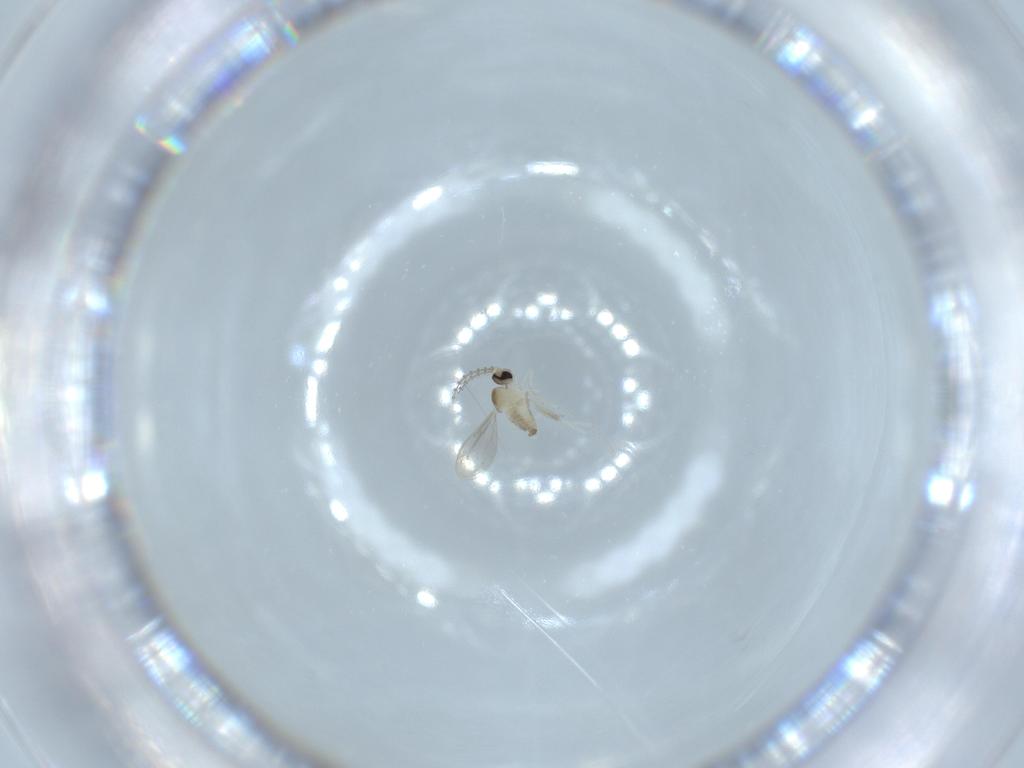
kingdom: Animalia
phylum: Arthropoda
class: Insecta
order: Diptera
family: Cecidomyiidae
